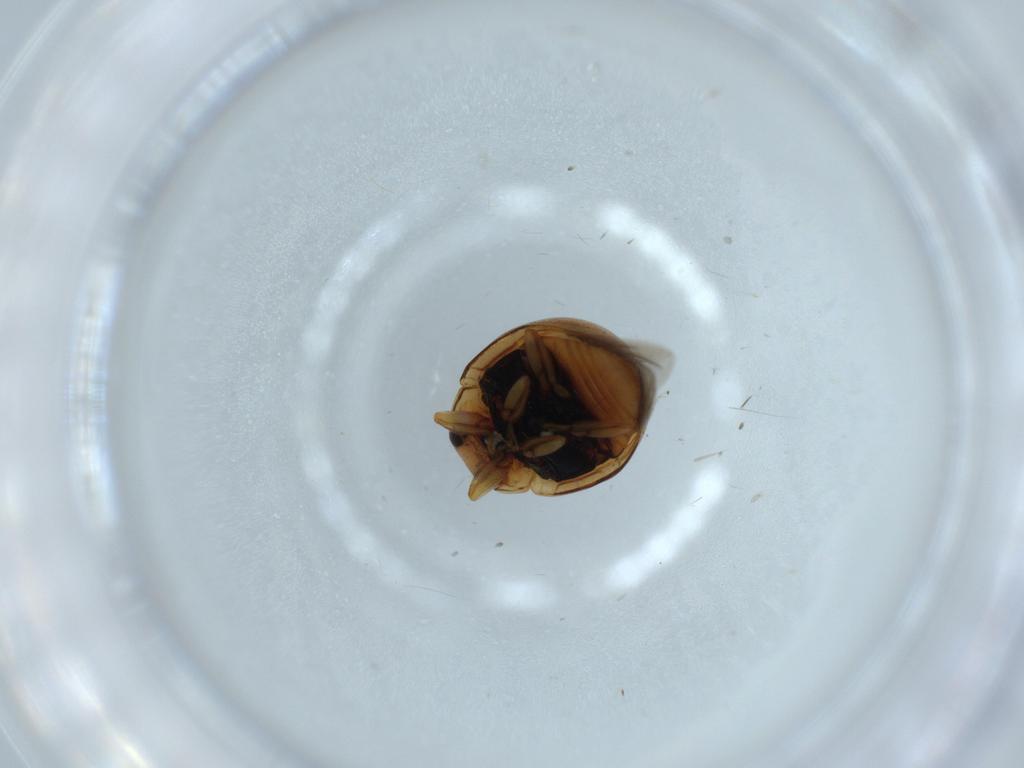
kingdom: Animalia
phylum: Arthropoda
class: Insecta
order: Coleoptera
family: Coccinellidae
